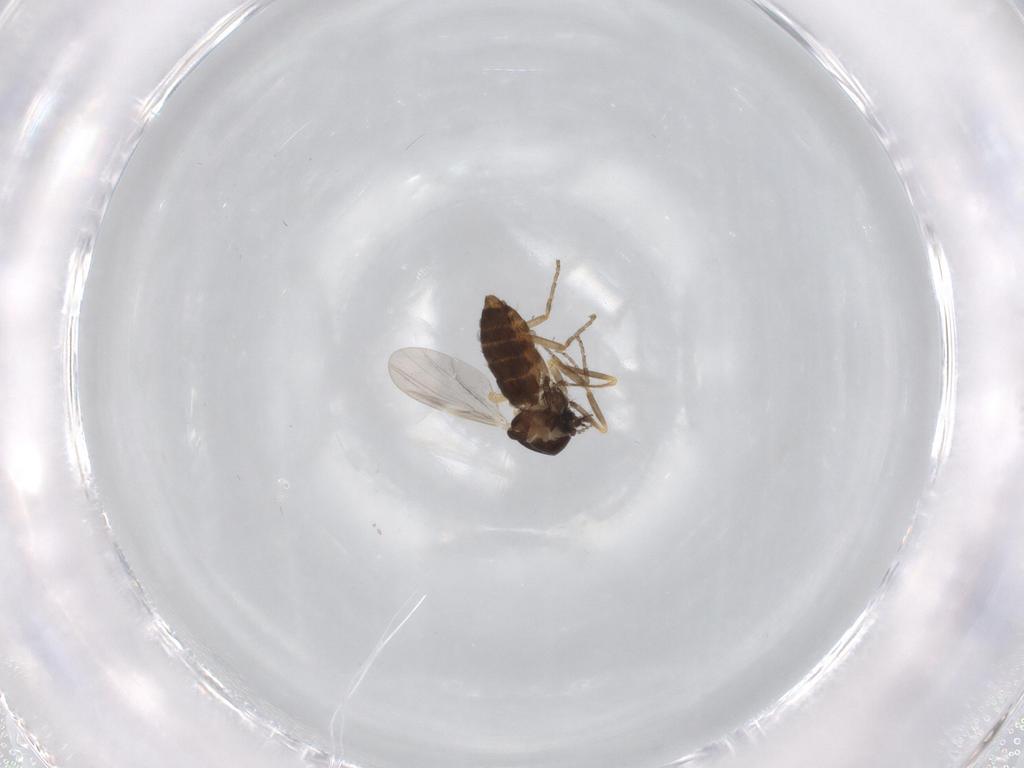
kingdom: Animalia
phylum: Arthropoda
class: Insecta
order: Diptera
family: Ceratopogonidae
